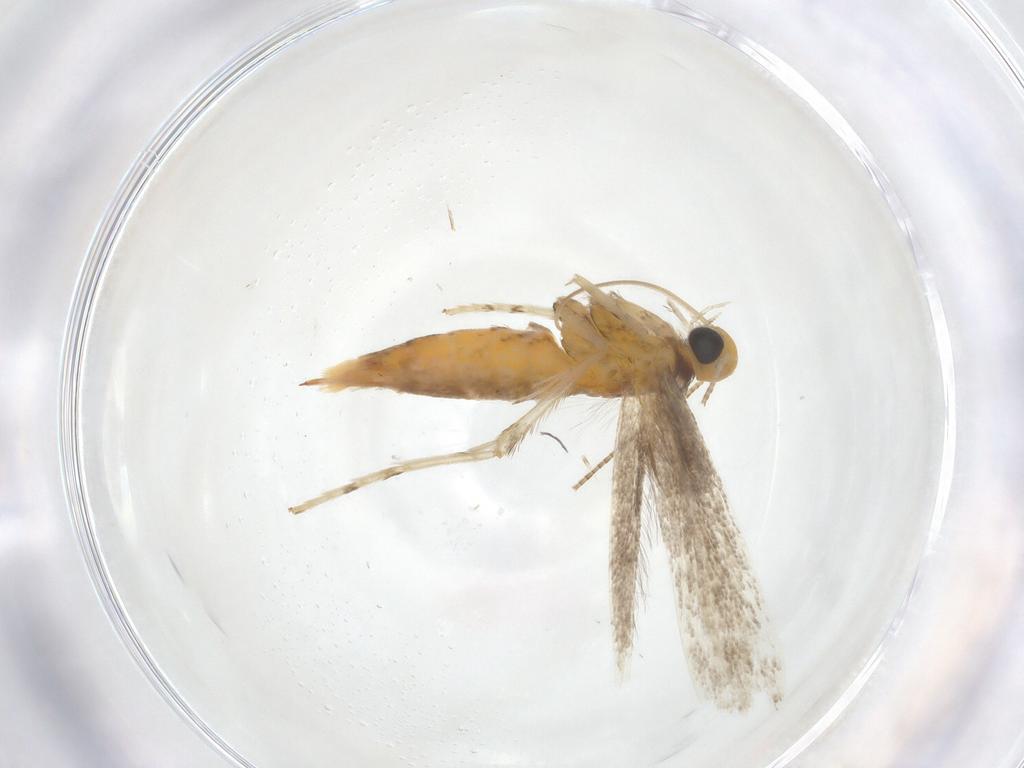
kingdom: Animalia
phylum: Arthropoda
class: Insecta
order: Lepidoptera
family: Gracillariidae
